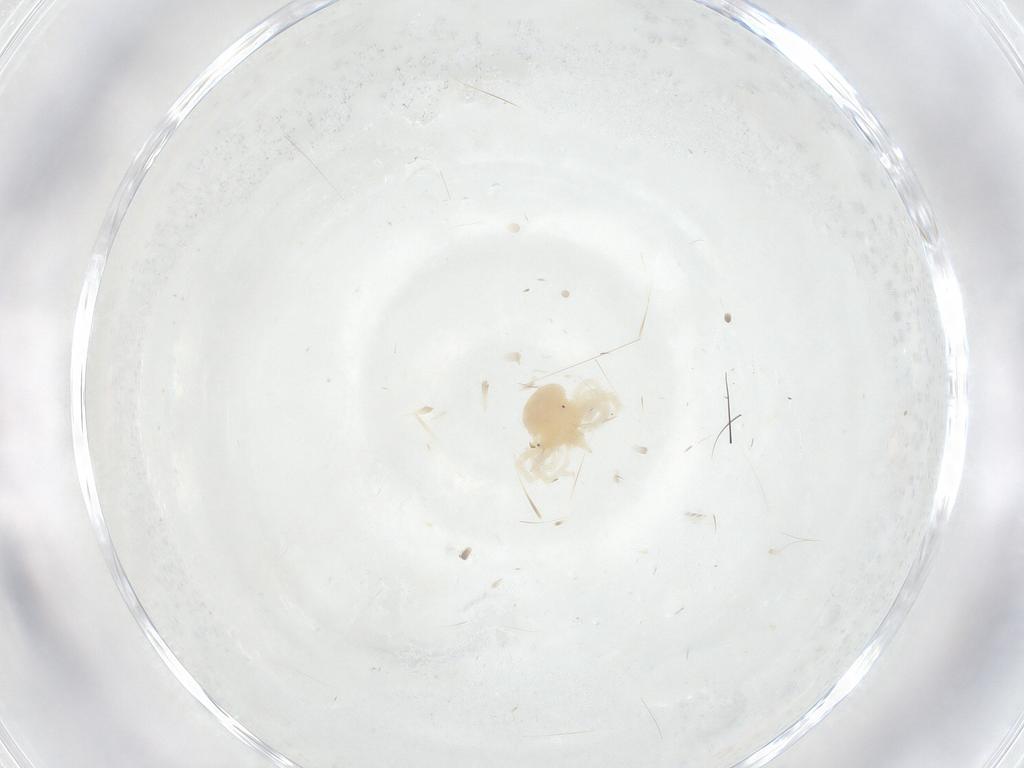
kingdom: Animalia
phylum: Arthropoda
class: Arachnida
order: Trombidiformes
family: Anystidae
